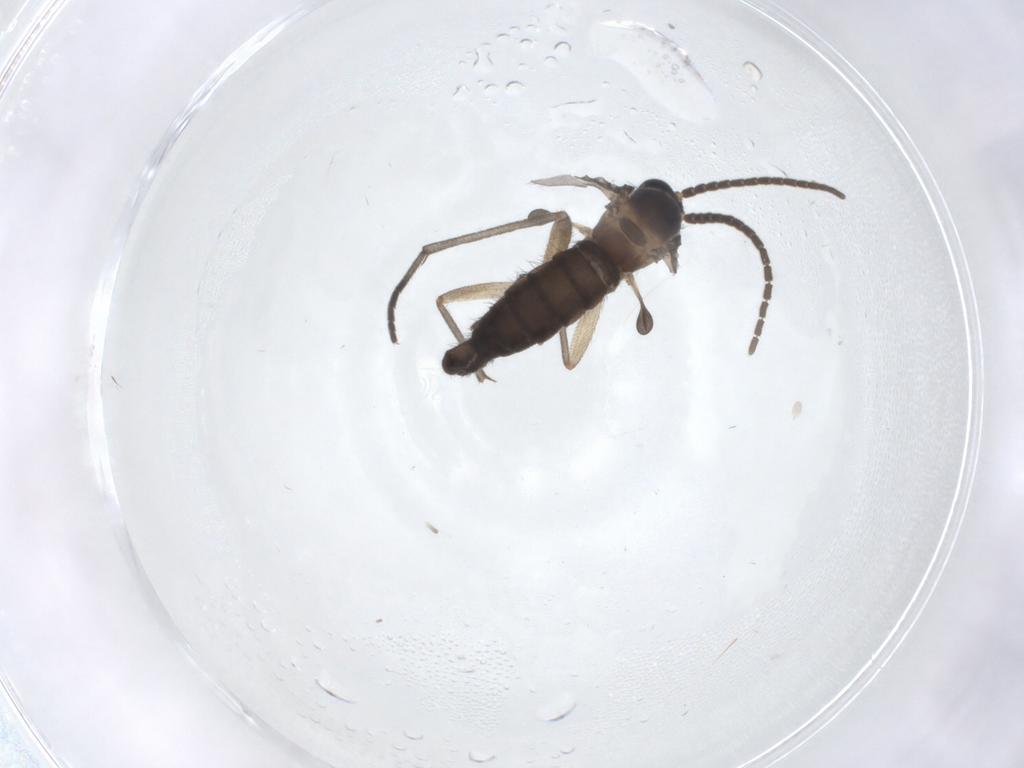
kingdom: Animalia
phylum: Arthropoda
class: Insecta
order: Diptera
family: Sciaridae
